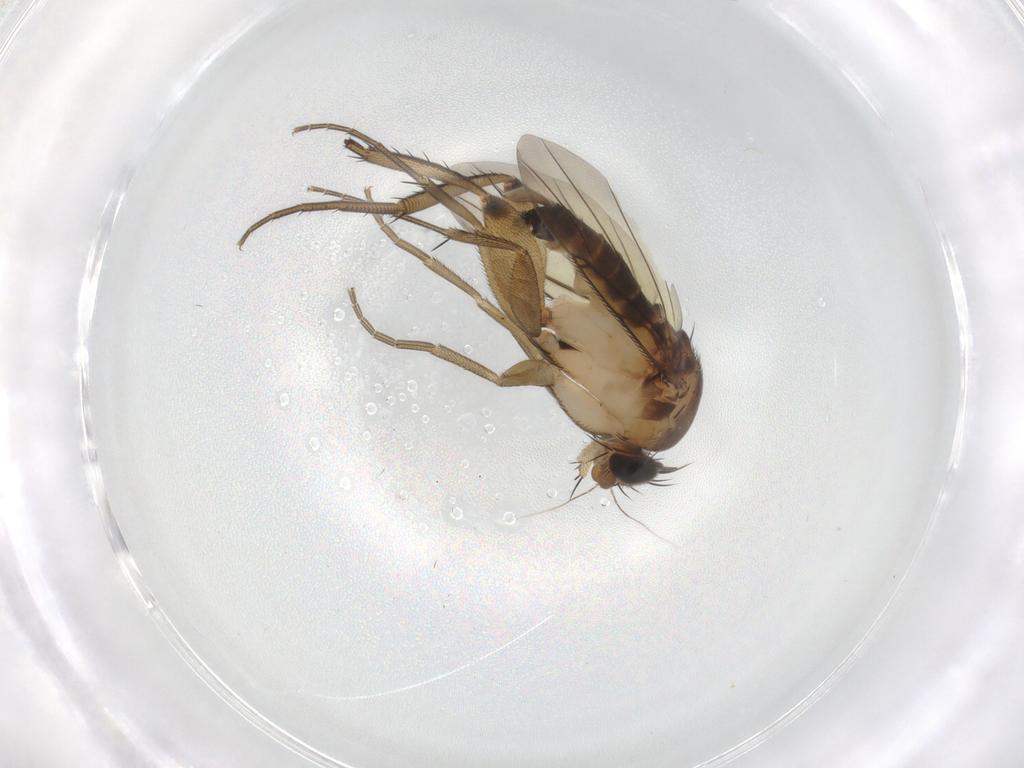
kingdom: Animalia
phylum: Arthropoda
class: Insecta
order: Diptera
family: Phoridae
